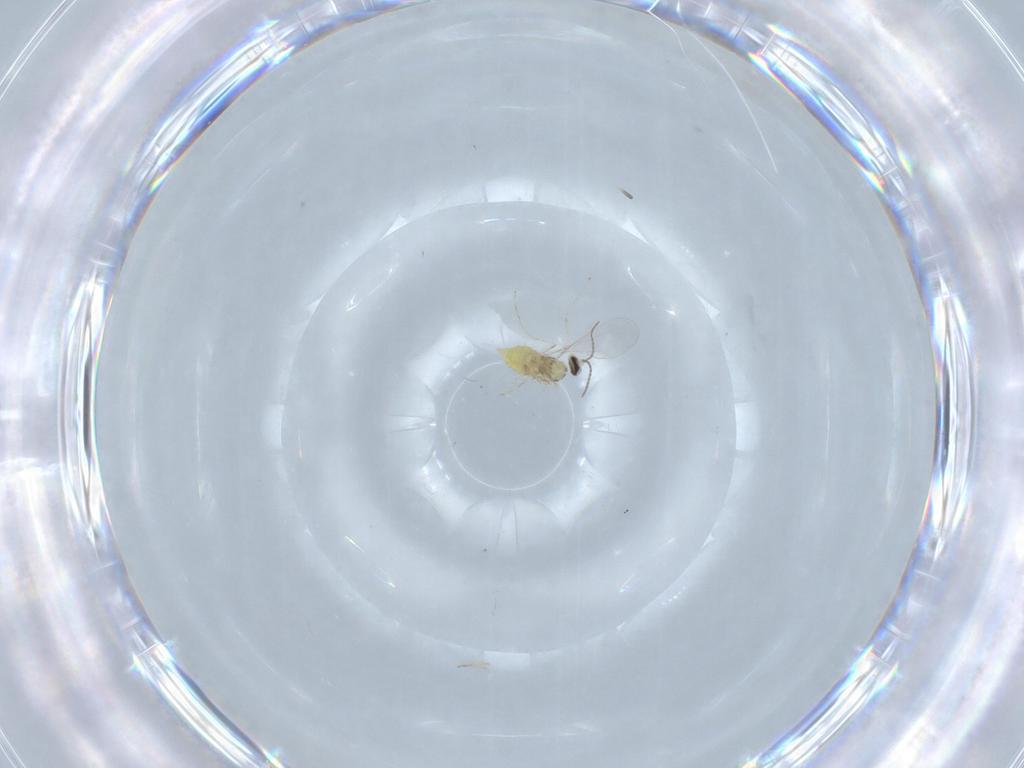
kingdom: Animalia
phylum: Arthropoda
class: Insecta
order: Diptera
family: Cecidomyiidae
